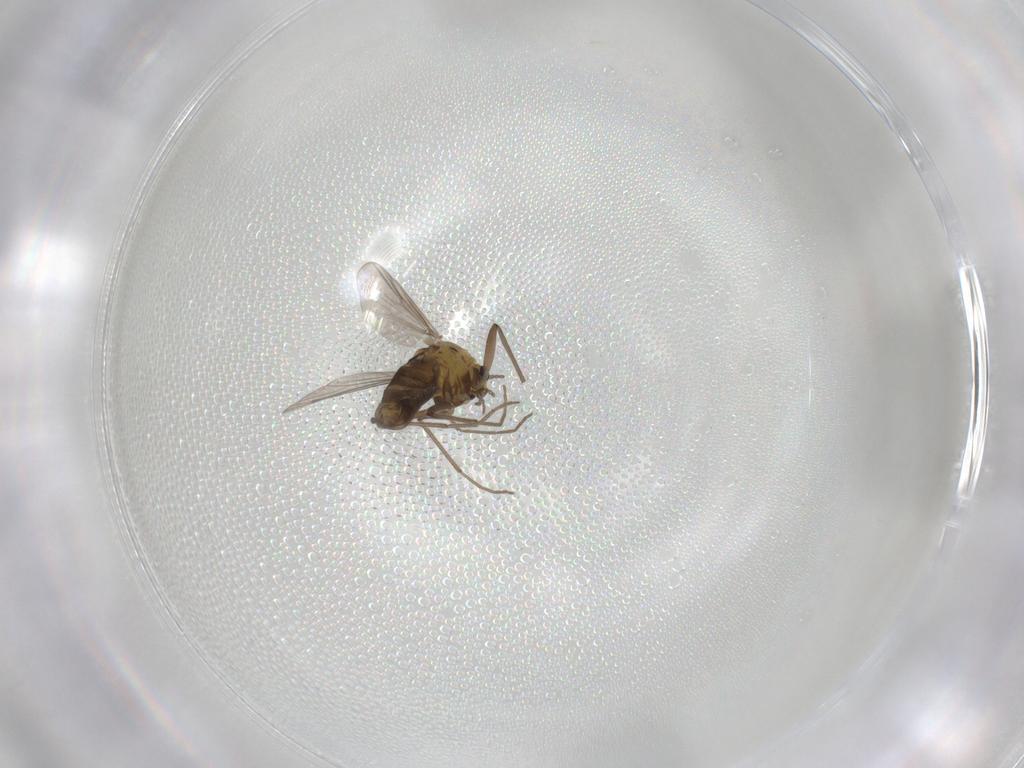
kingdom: Animalia
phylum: Arthropoda
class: Insecta
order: Diptera
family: Chironomidae
